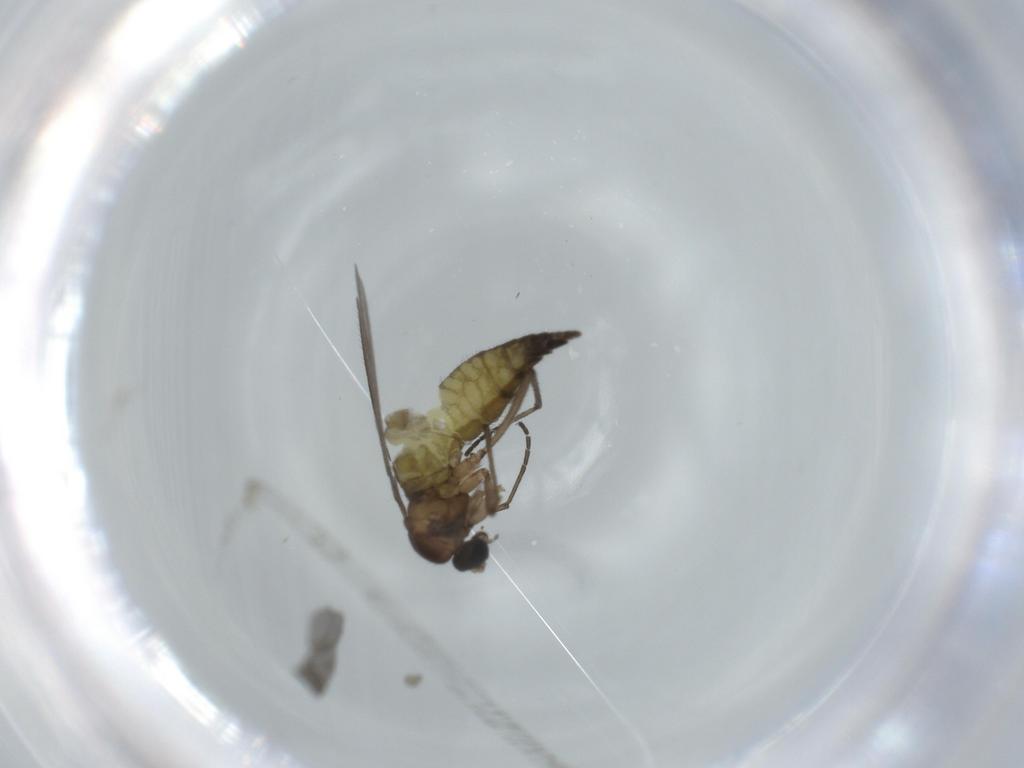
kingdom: Animalia
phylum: Arthropoda
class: Insecta
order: Diptera
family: Sciaridae
